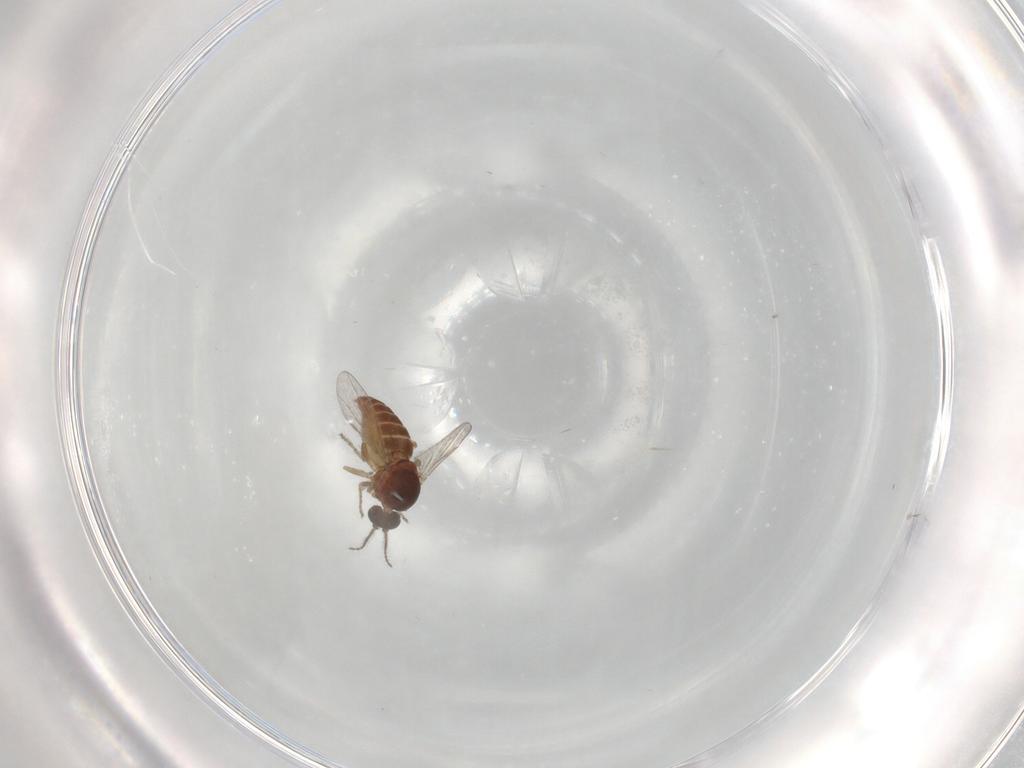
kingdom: Animalia
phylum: Arthropoda
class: Insecta
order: Diptera
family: Ceratopogonidae
